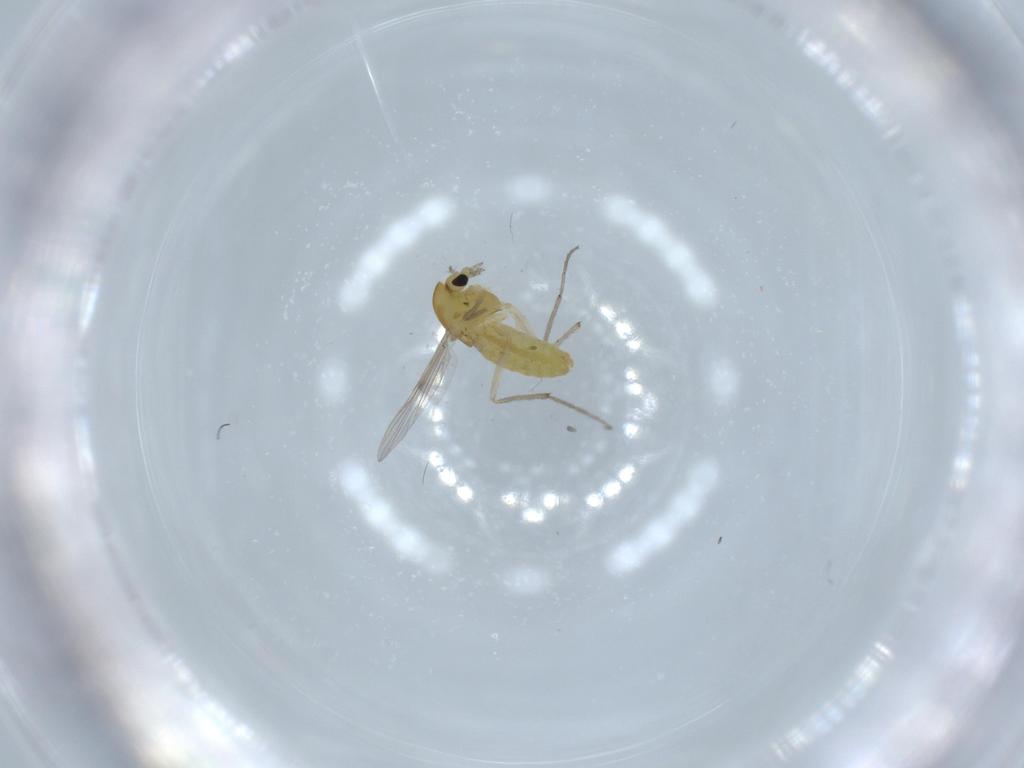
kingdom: Animalia
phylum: Arthropoda
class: Insecta
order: Diptera
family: Chironomidae
